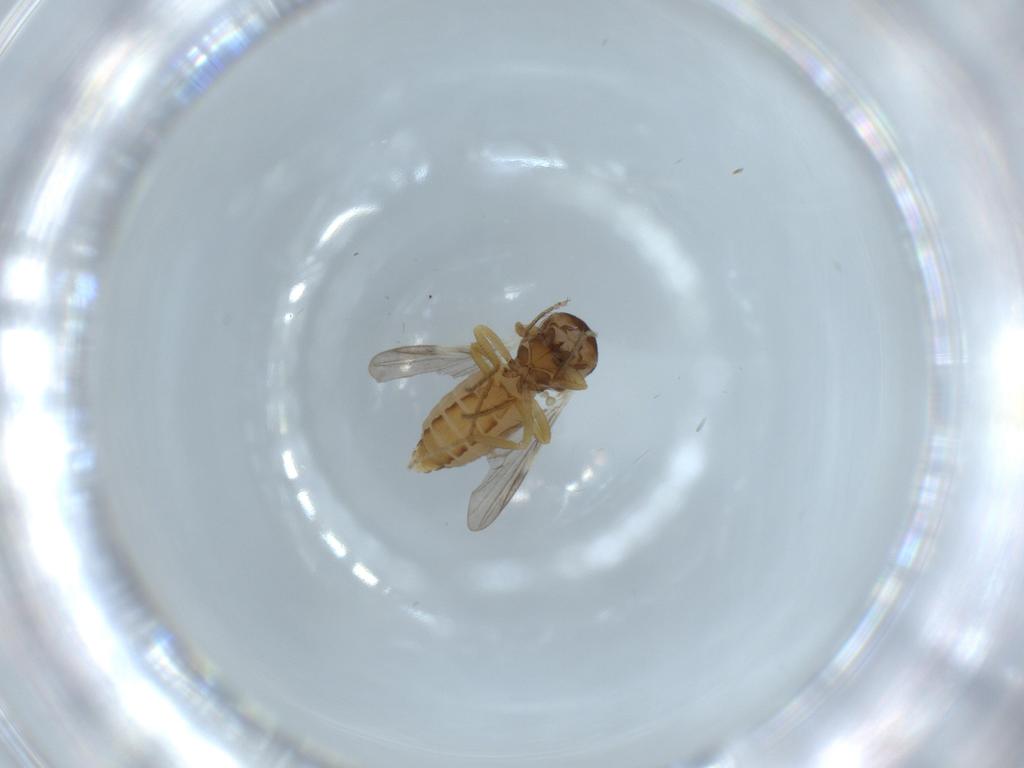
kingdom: Animalia
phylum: Arthropoda
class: Insecta
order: Diptera
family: Ceratopogonidae
